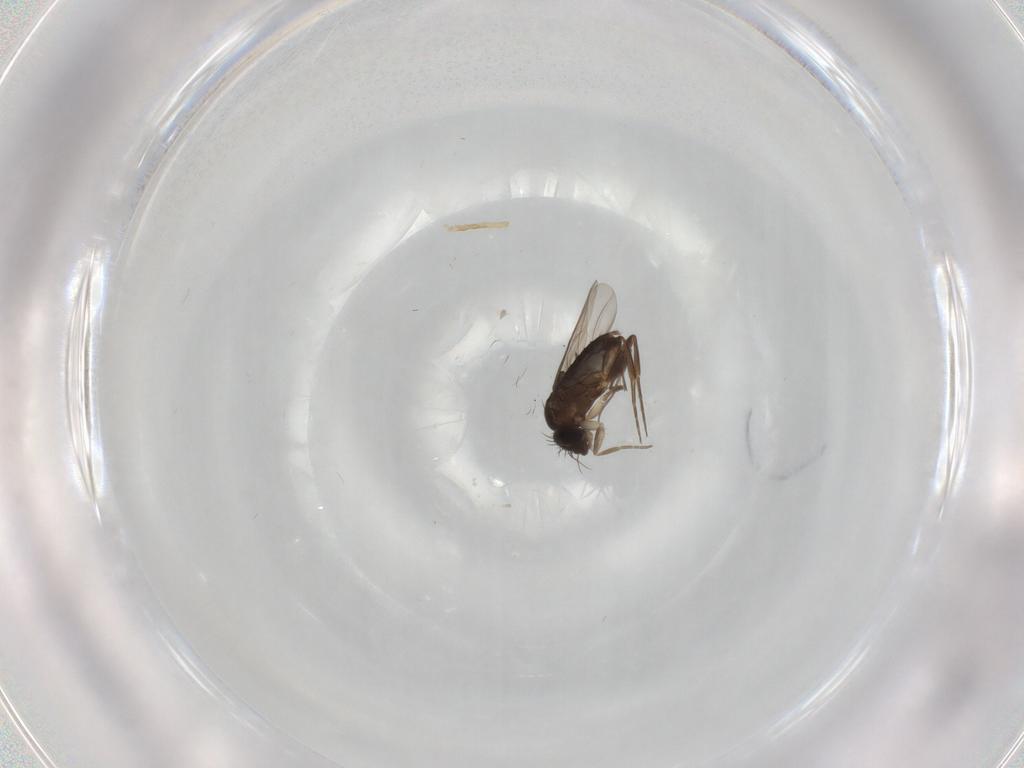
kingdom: Animalia
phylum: Arthropoda
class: Insecta
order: Diptera
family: Phoridae
